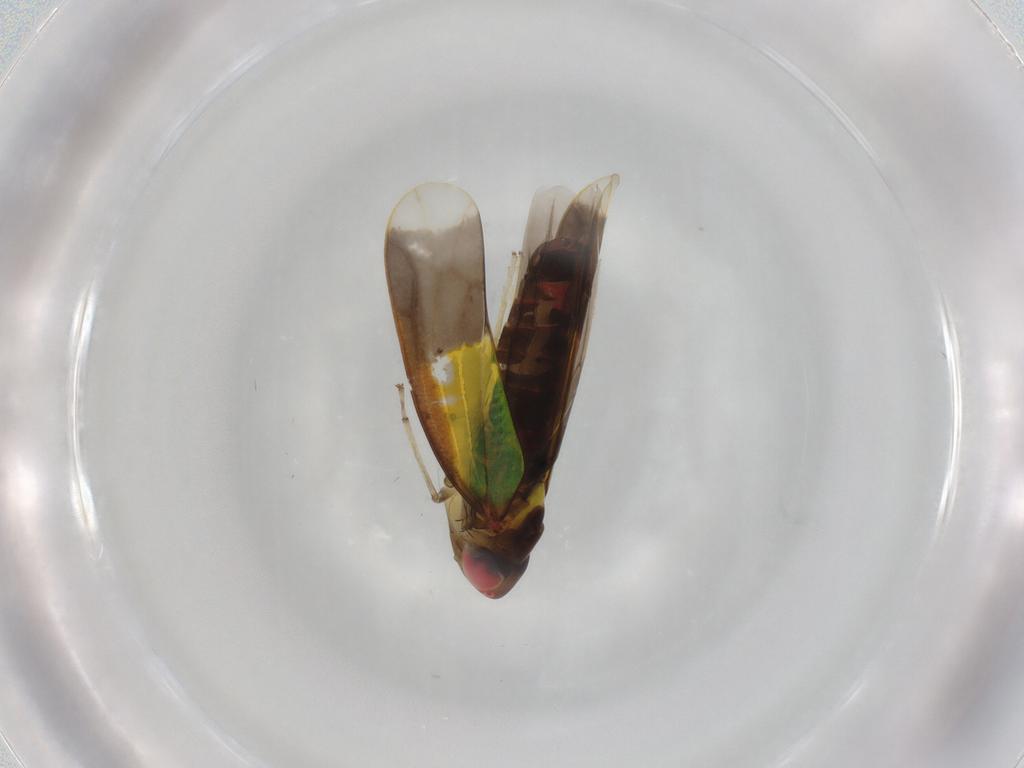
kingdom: Animalia
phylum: Arthropoda
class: Insecta
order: Hemiptera
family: Cicadellidae
